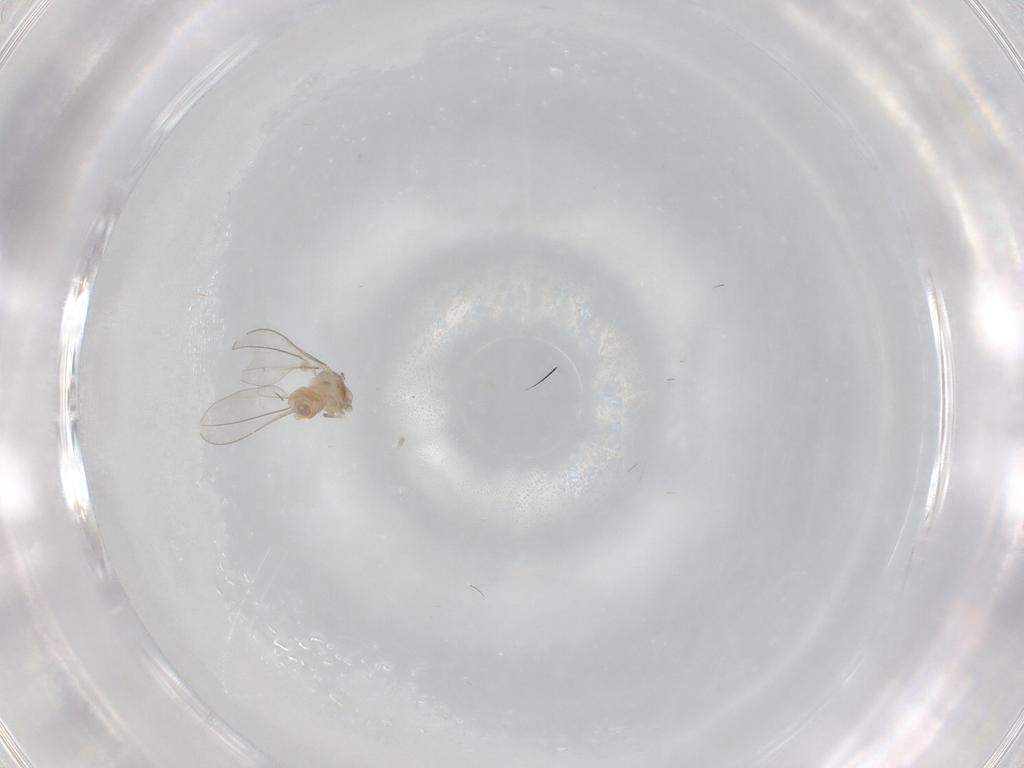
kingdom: Animalia
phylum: Arthropoda
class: Insecta
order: Diptera
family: Cecidomyiidae
